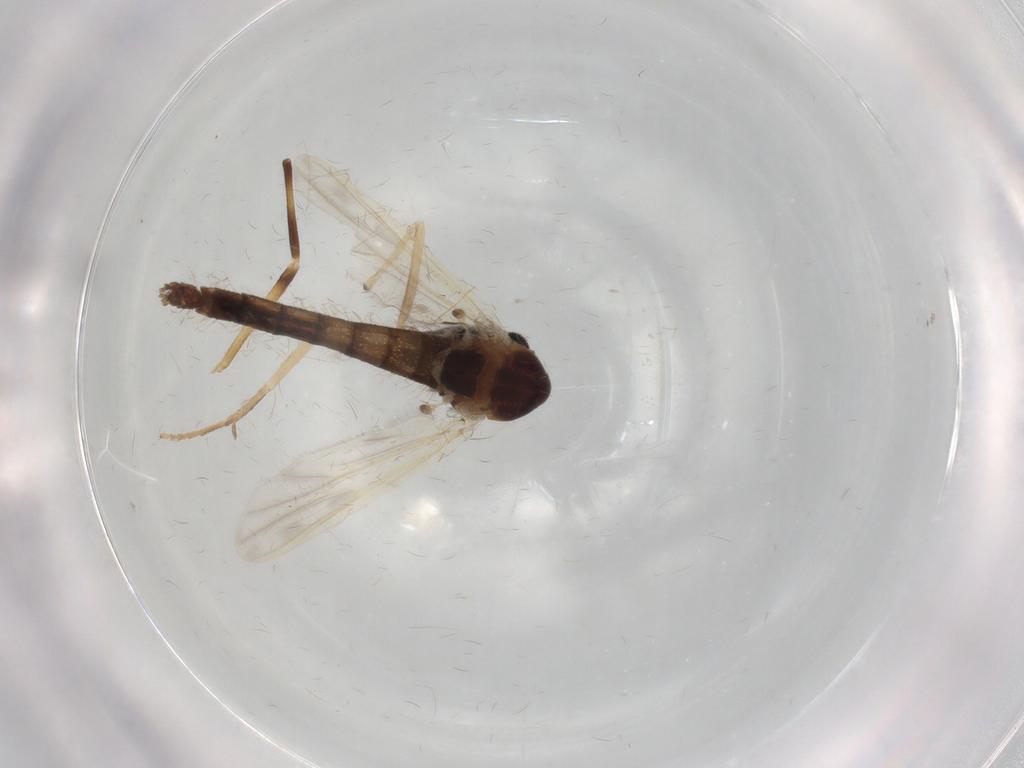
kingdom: Animalia
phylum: Arthropoda
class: Insecta
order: Diptera
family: Chironomidae
